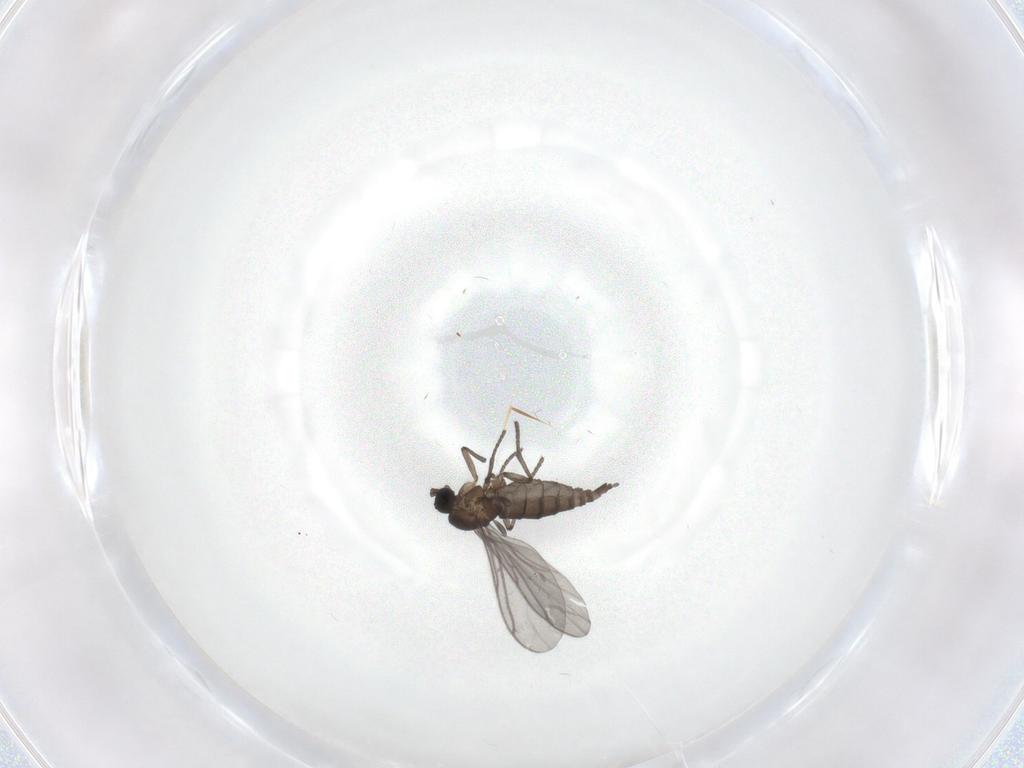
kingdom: Animalia
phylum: Arthropoda
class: Insecta
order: Diptera
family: Sciaridae
